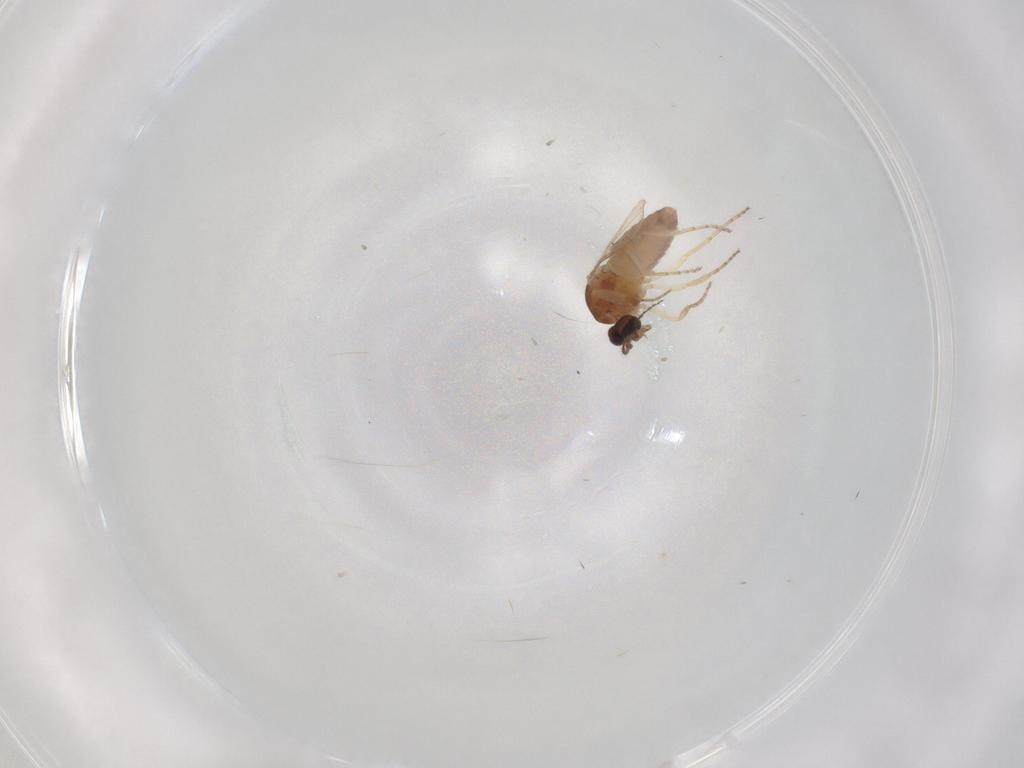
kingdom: Animalia
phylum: Arthropoda
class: Insecta
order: Diptera
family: Ceratopogonidae
